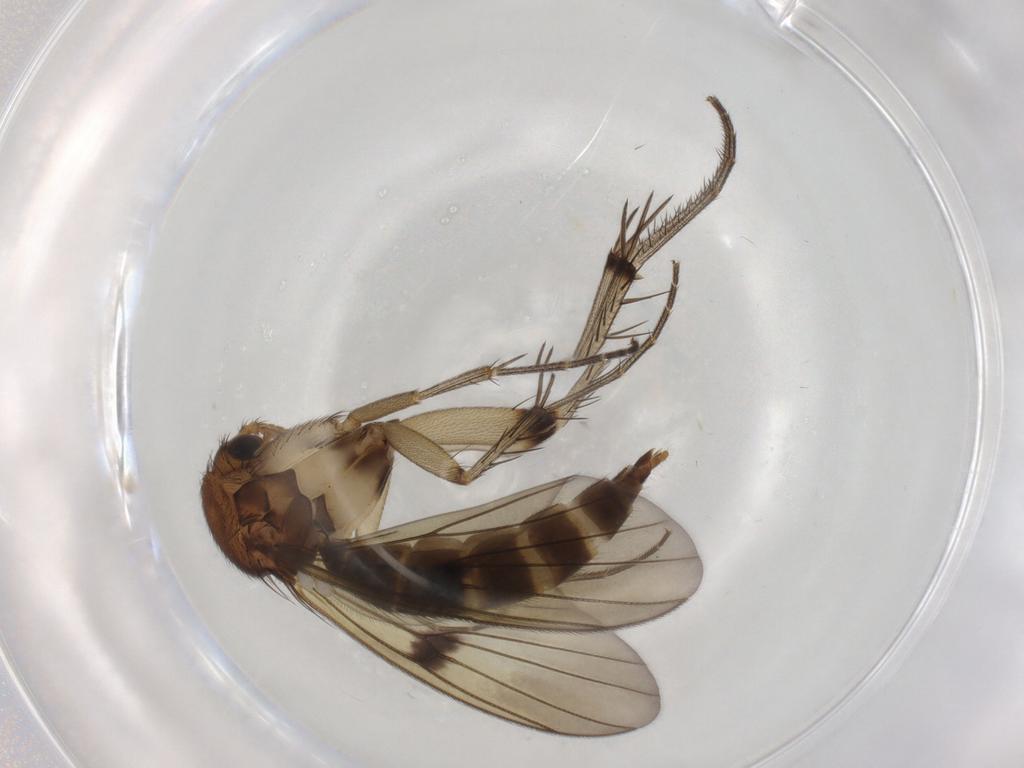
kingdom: Animalia
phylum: Arthropoda
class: Insecta
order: Diptera
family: Mycetophilidae
